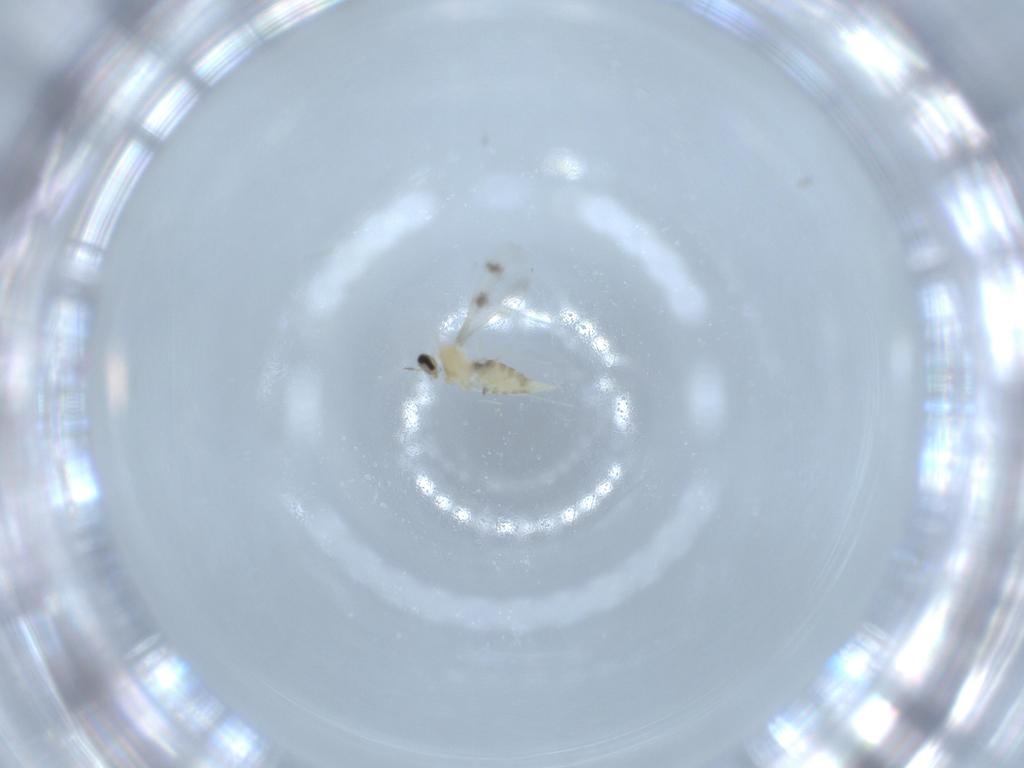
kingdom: Animalia
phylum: Arthropoda
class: Insecta
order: Diptera
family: Cecidomyiidae
